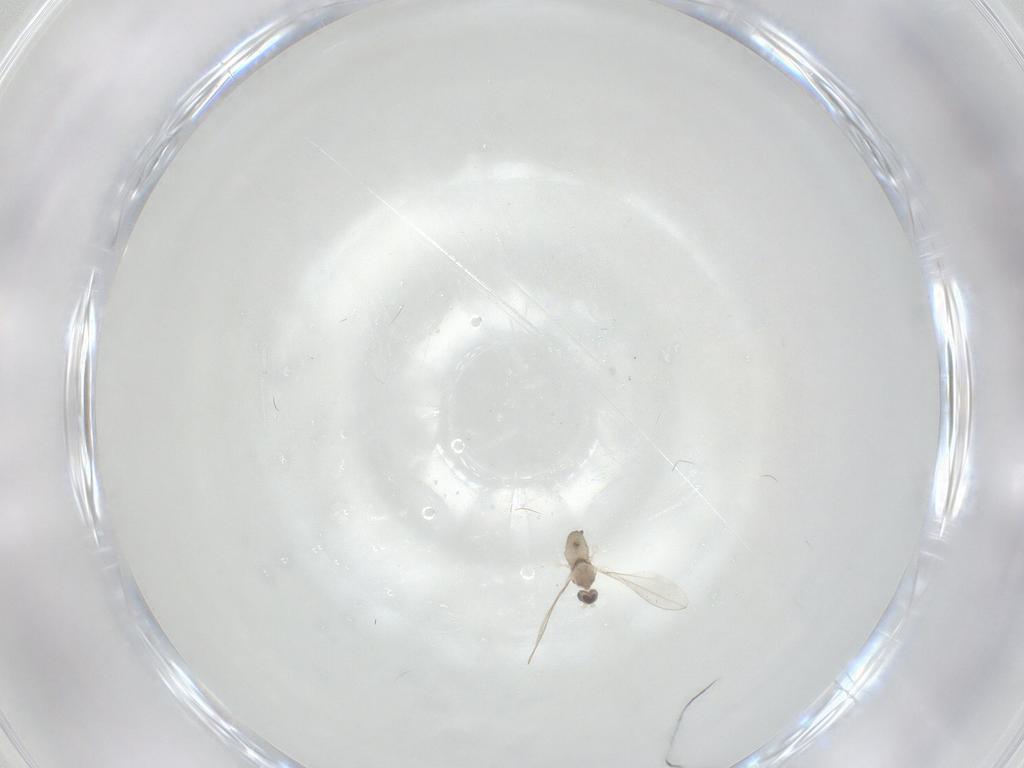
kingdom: Animalia
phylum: Arthropoda
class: Insecta
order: Diptera
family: Cecidomyiidae
